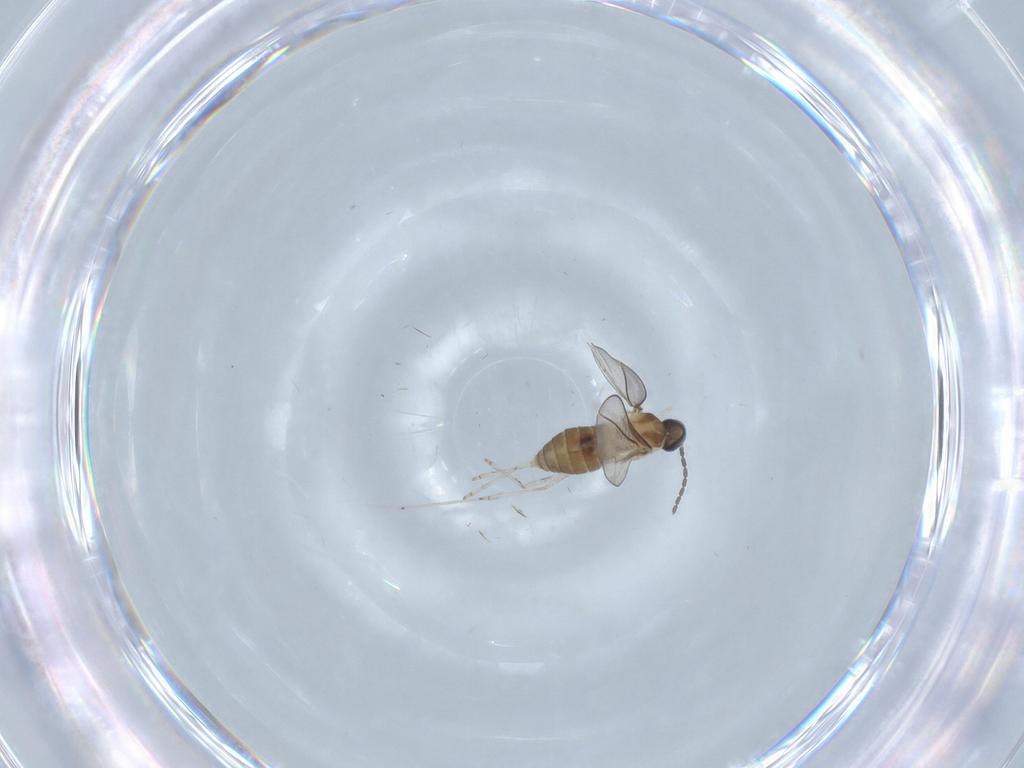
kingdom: Animalia
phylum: Arthropoda
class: Insecta
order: Diptera
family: Cecidomyiidae
